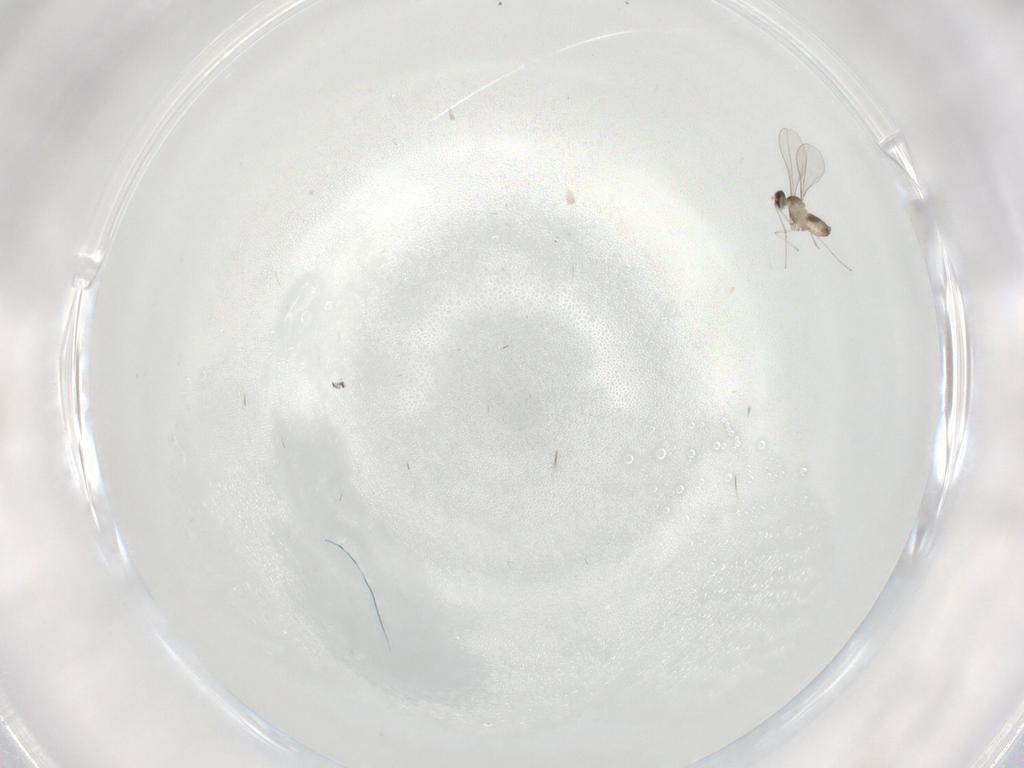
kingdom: Animalia
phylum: Arthropoda
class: Insecta
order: Diptera
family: Cecidomyiidae
